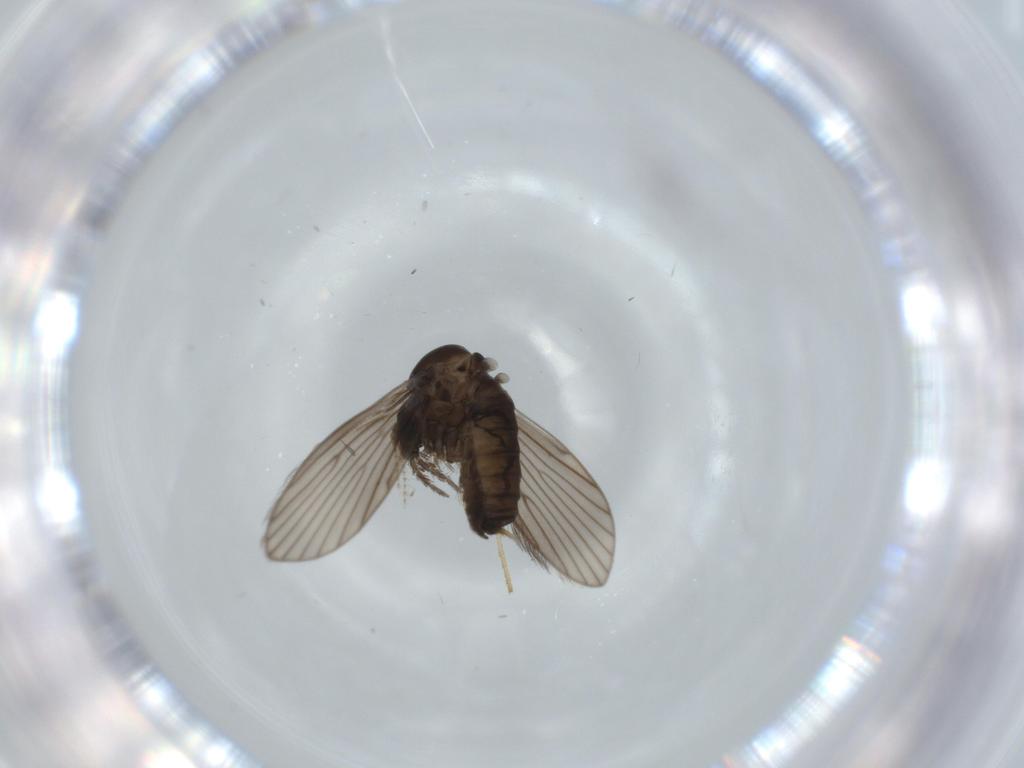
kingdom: Animalia
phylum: Arthropoda
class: Insecta
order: Diptera
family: Psychodidae
